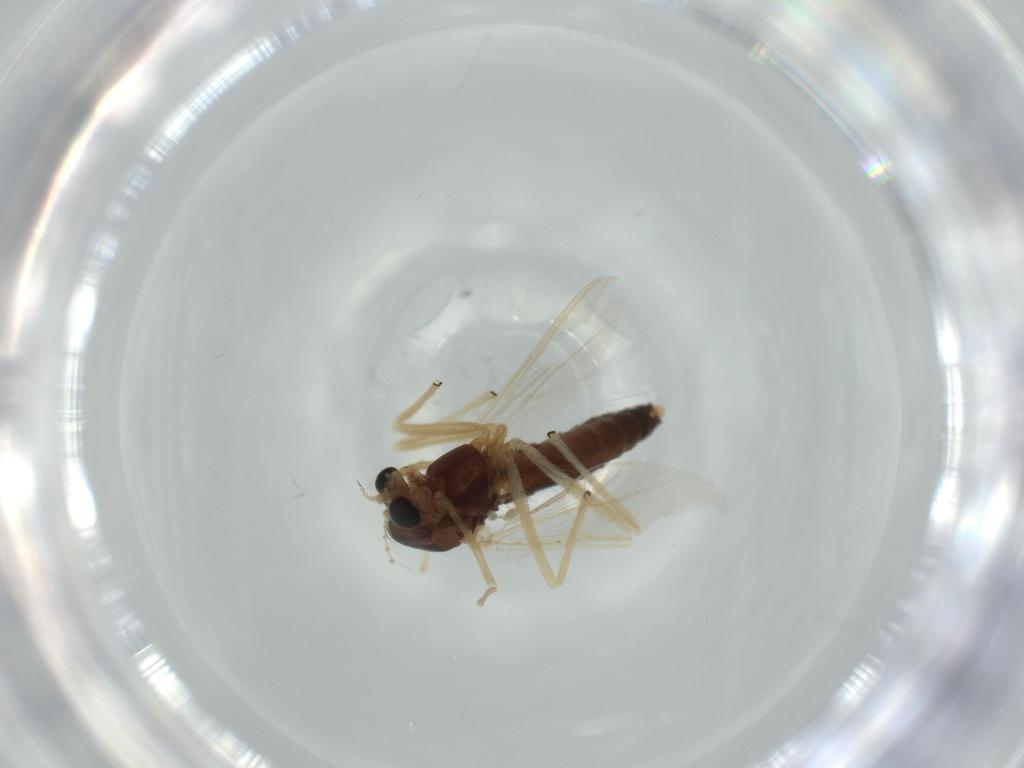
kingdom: Animalia
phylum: Arthropoda
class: Insecta
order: Diptera
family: Chironomidae
